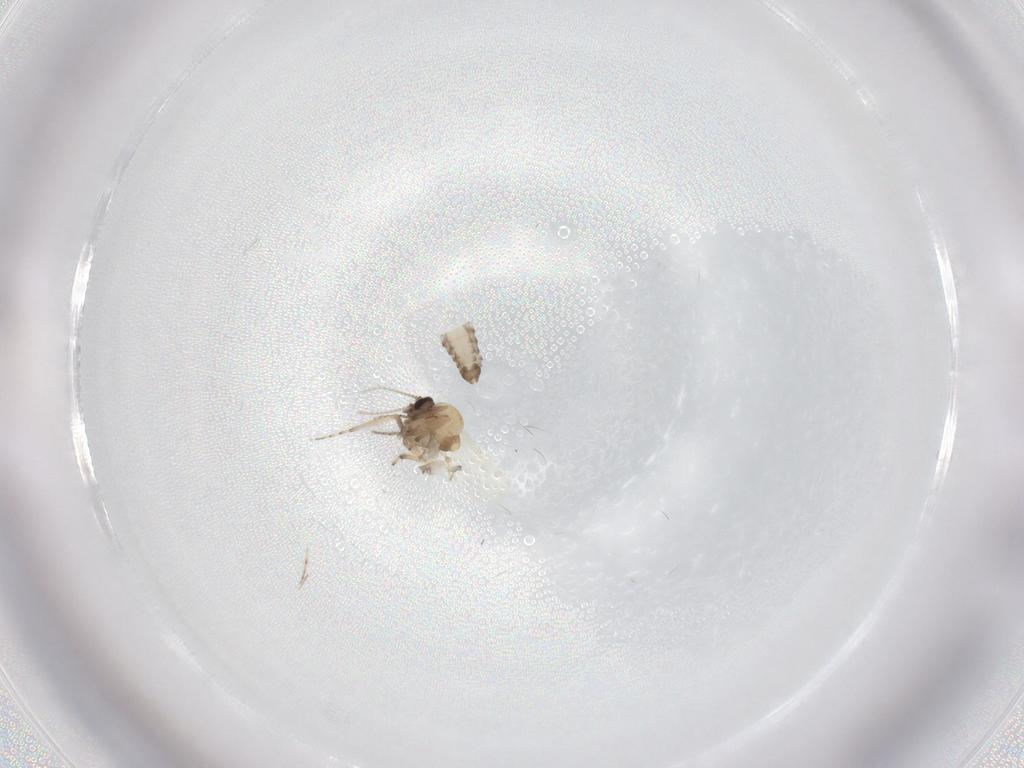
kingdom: Animalia
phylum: Arthropoda
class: Insecta
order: Diptera
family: Ceratopogonidae
